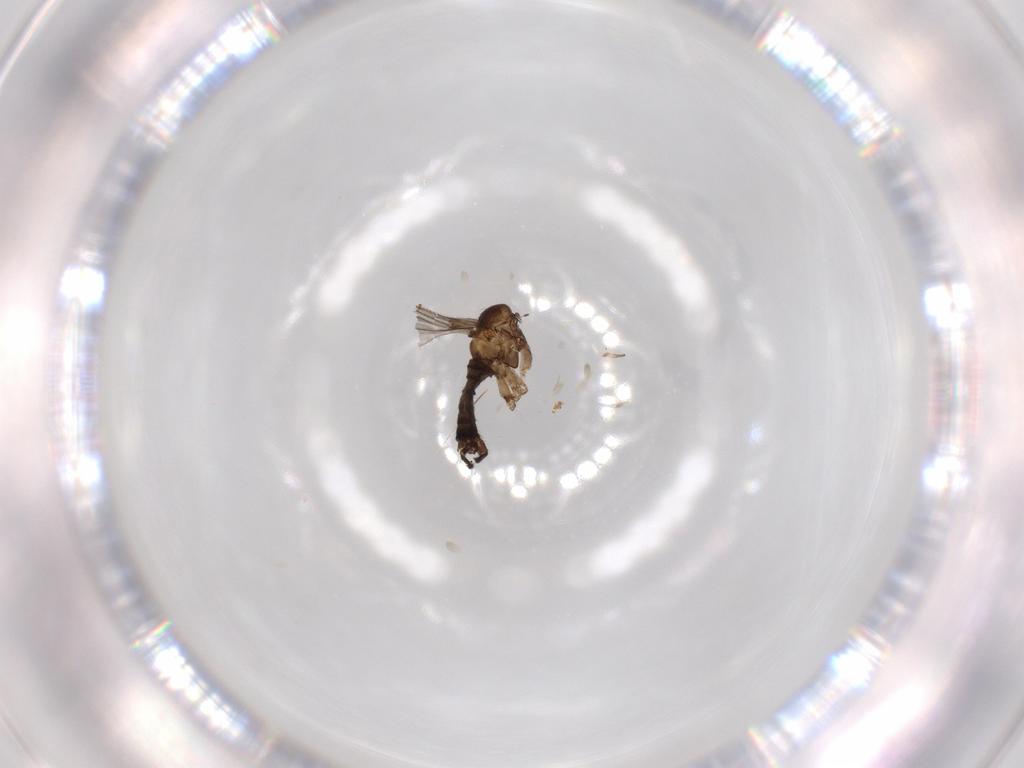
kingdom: Animalia
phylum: Arthropoda
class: Insecta
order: Diptera
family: Sciaridae
